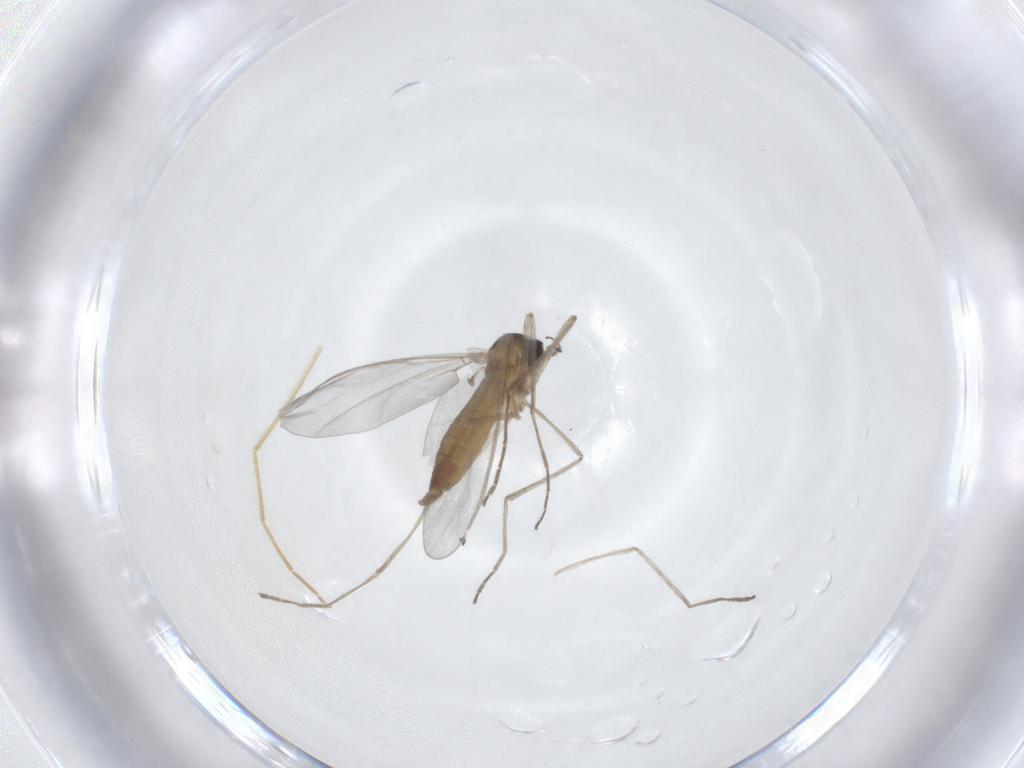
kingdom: Animalia
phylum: Arthropoda
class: Insecta
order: Diptera
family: Cecidomyiidae
